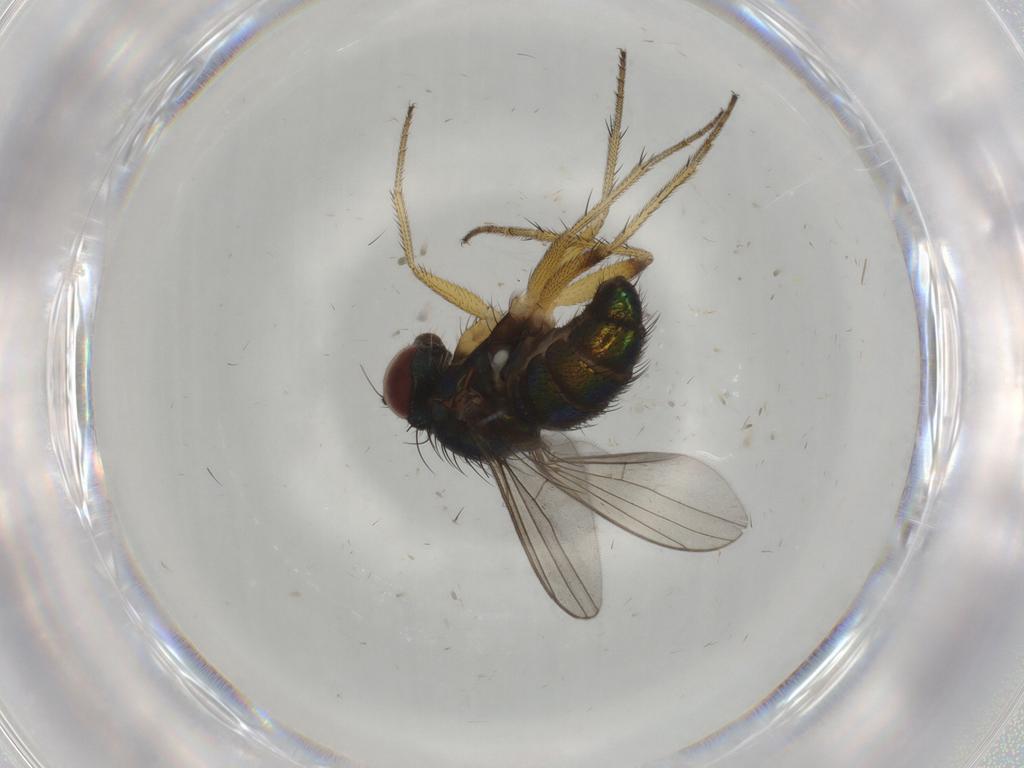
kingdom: Animalia
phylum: Arthropoda
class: Insecta
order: Diptera
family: Dolichopodidae
